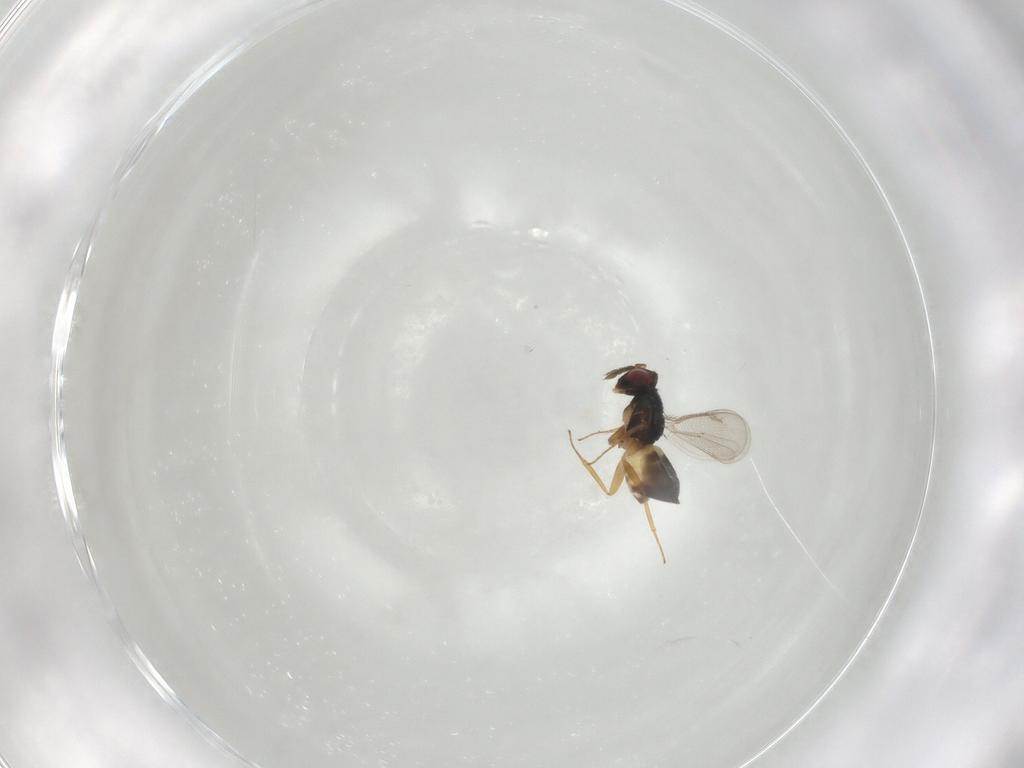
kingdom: Animalia
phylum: Arthropoda
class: Insecta
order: Hymenoptera
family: Eulophidae
